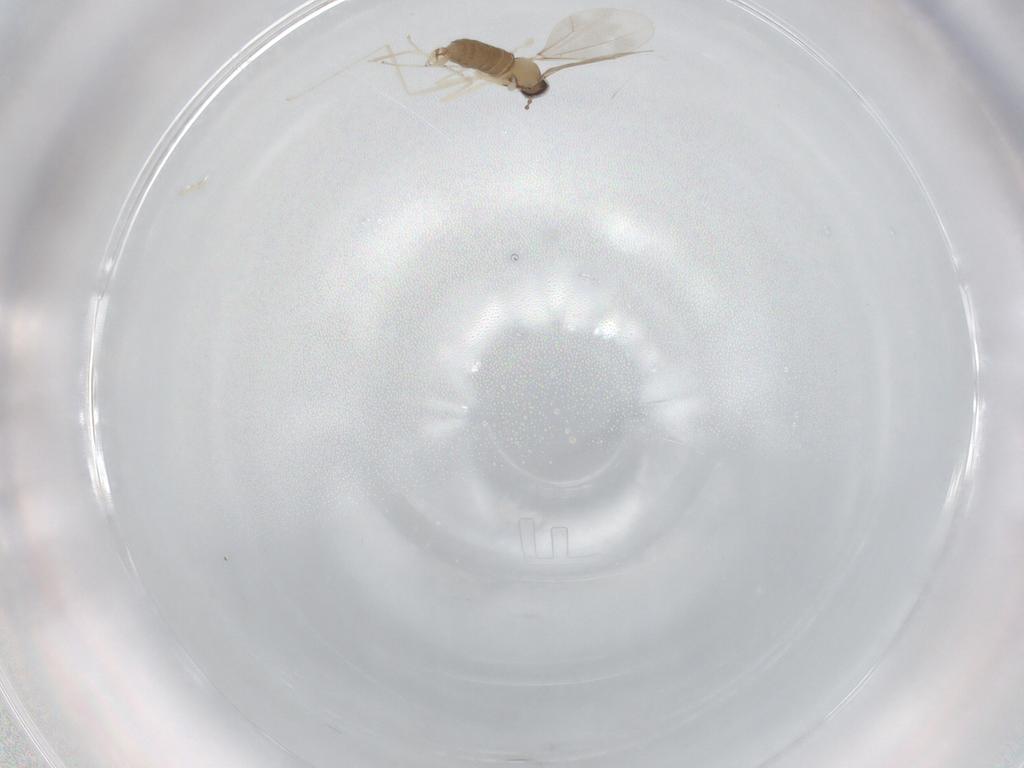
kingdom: Animalia
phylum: Arthropoda
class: Insecta
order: Diptera
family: Cecidomyiidae
